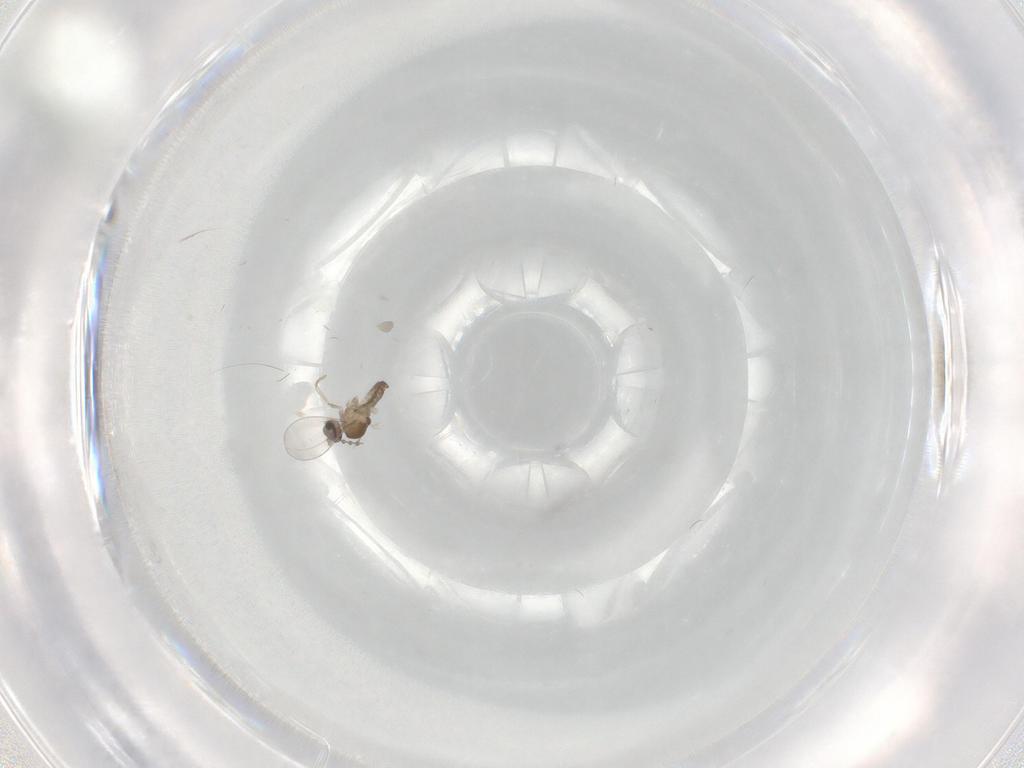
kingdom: Animalia
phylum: Arthropoda
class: Insecta
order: Diptera
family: Cecidomyiidae
